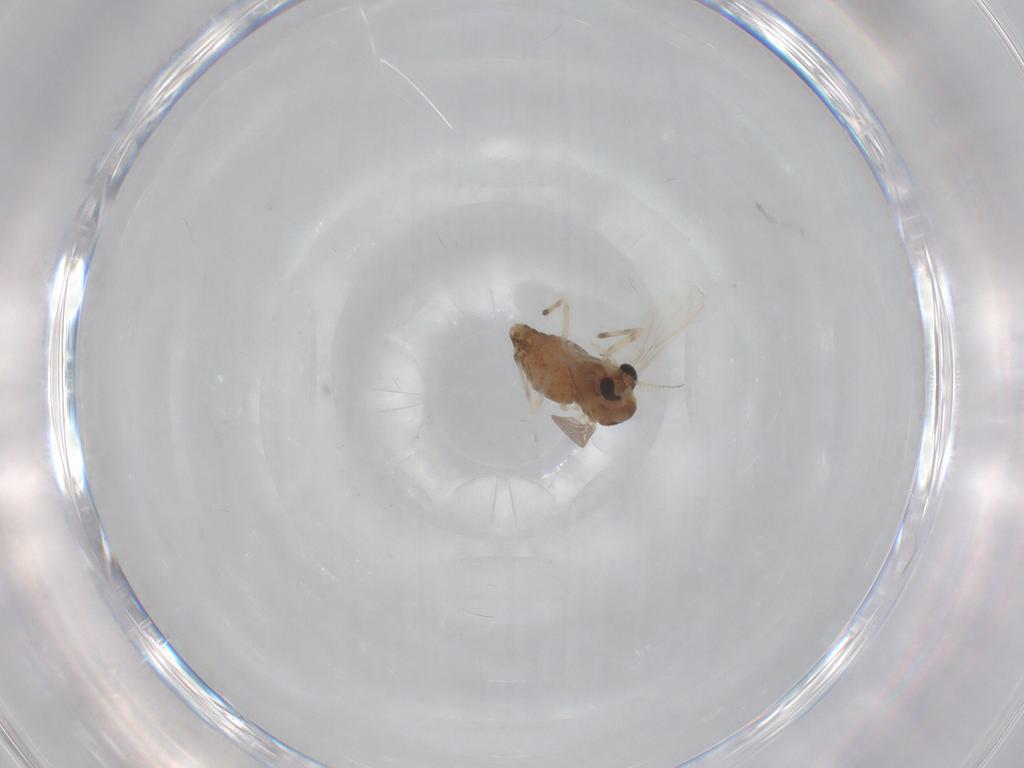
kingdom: Animalia
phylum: Arthropoda
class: Insecta
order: Diptera
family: Chironomidae
